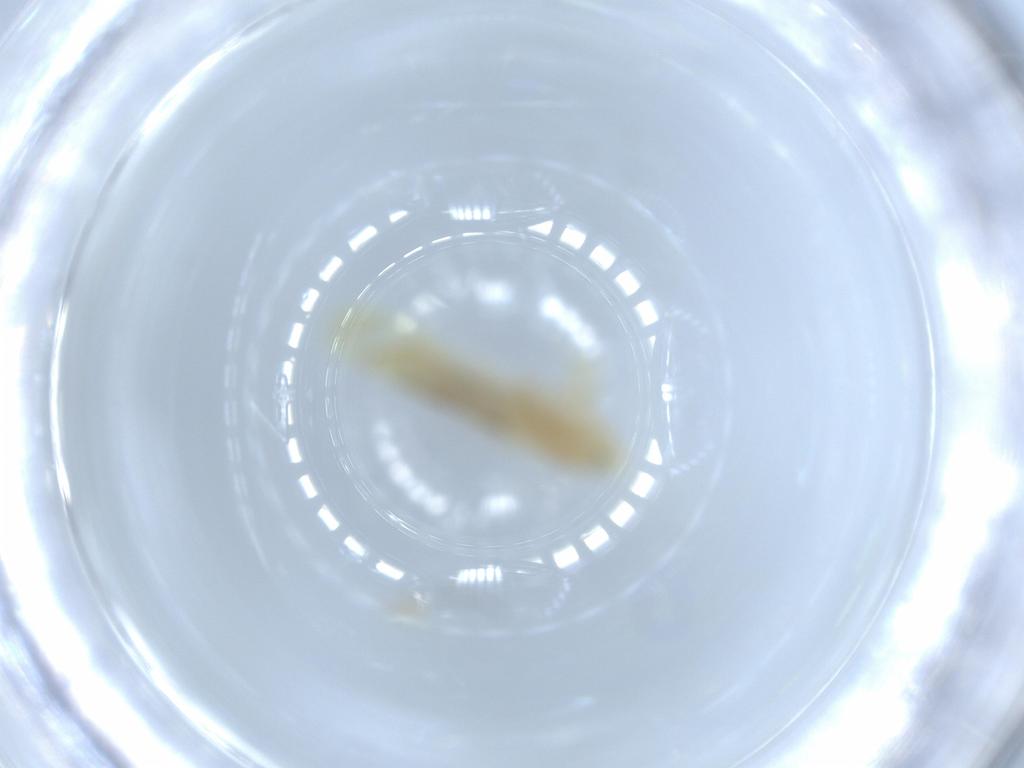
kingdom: Animalia
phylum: Arthropoda
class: Insecta
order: Hemiptera
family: Cicadellidae
